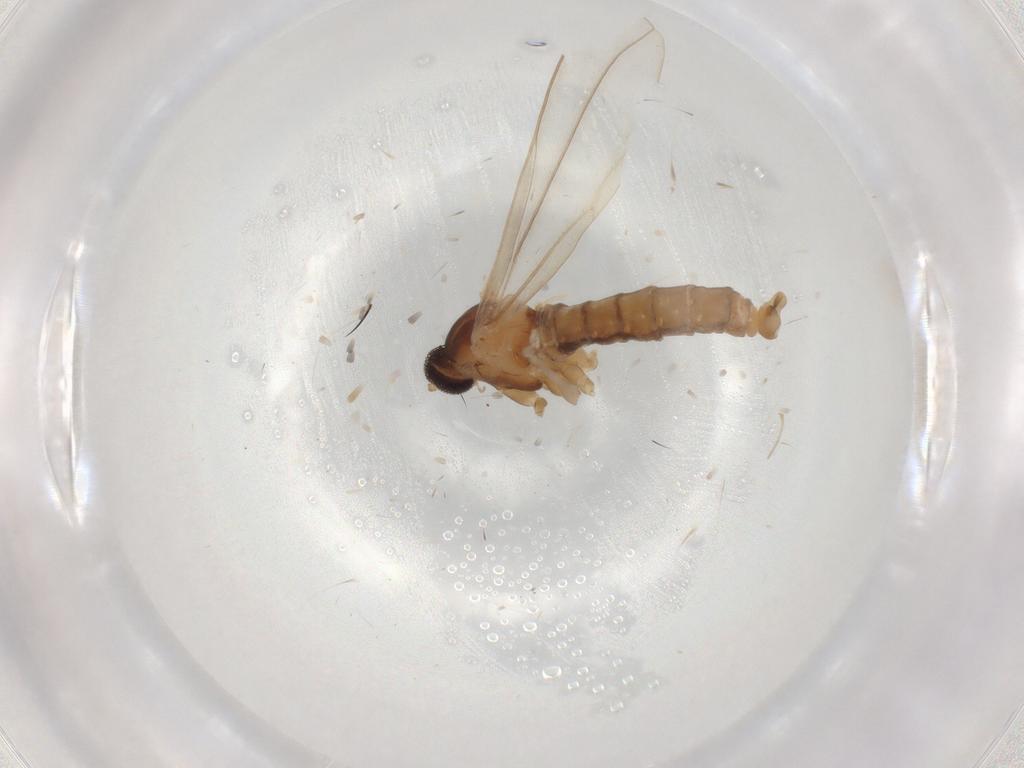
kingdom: Animalia
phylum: Arthropoda
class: Insecta
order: Diptera
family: Cecidomyiidae
